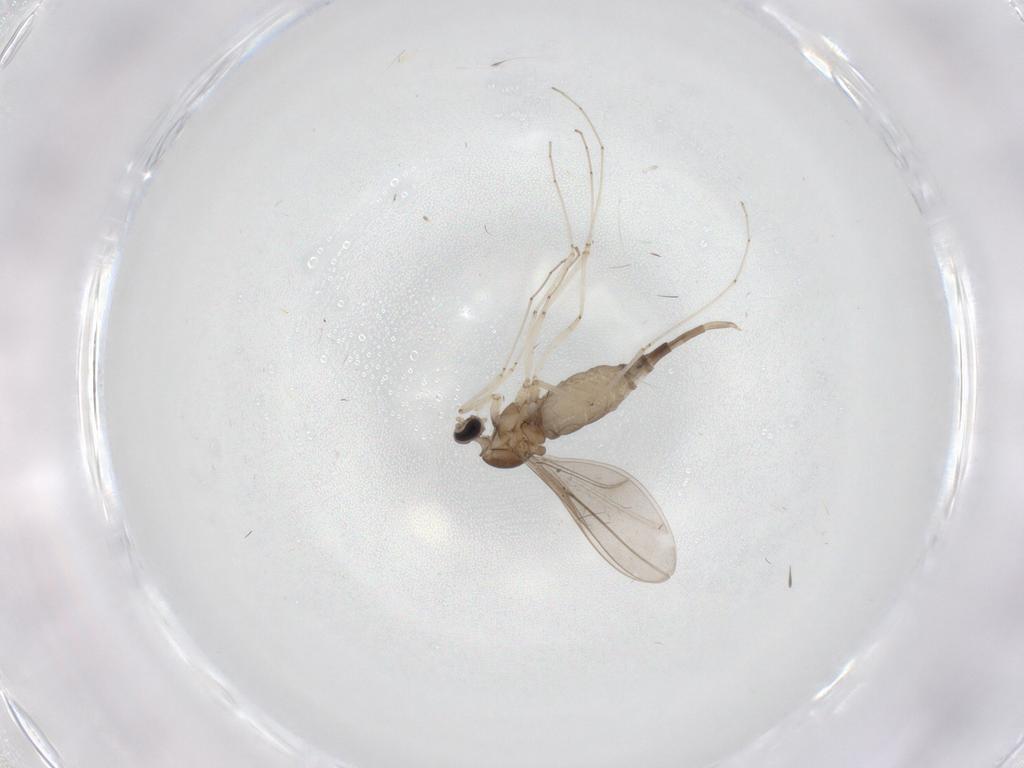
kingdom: Animalia
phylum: Arthropoda
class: Insecta
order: Diptera
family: Cecidomyiidae
